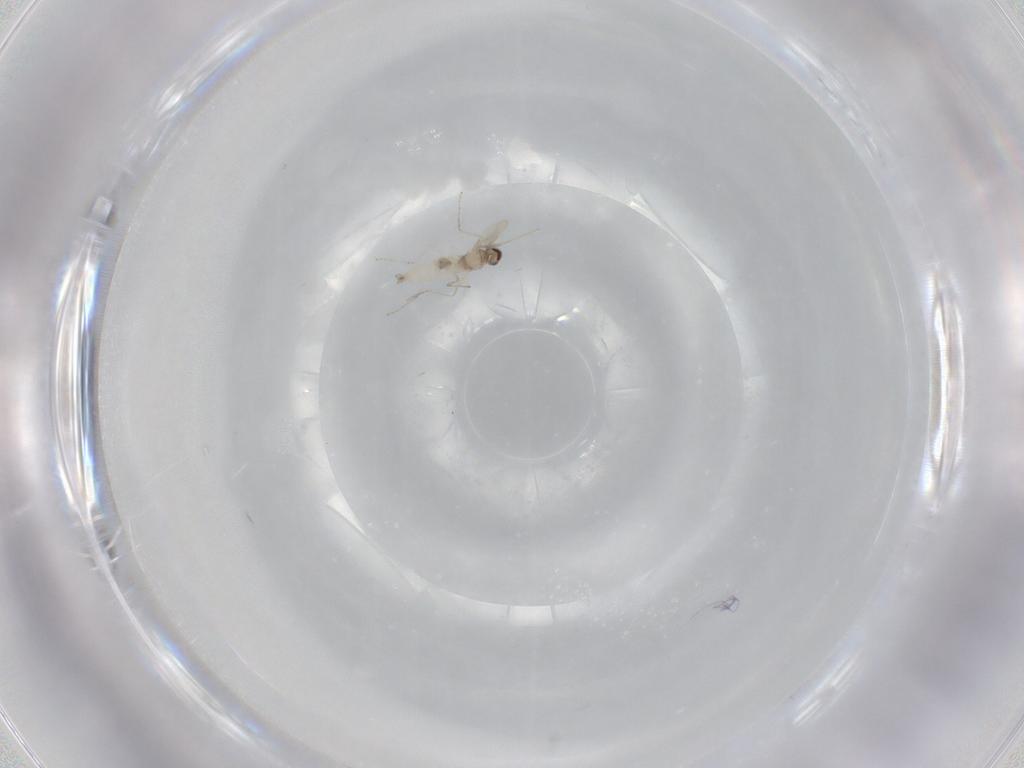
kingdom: Animalia
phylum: Arthropoda
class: Insecta
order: Diptera
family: Cecidomyiidae
